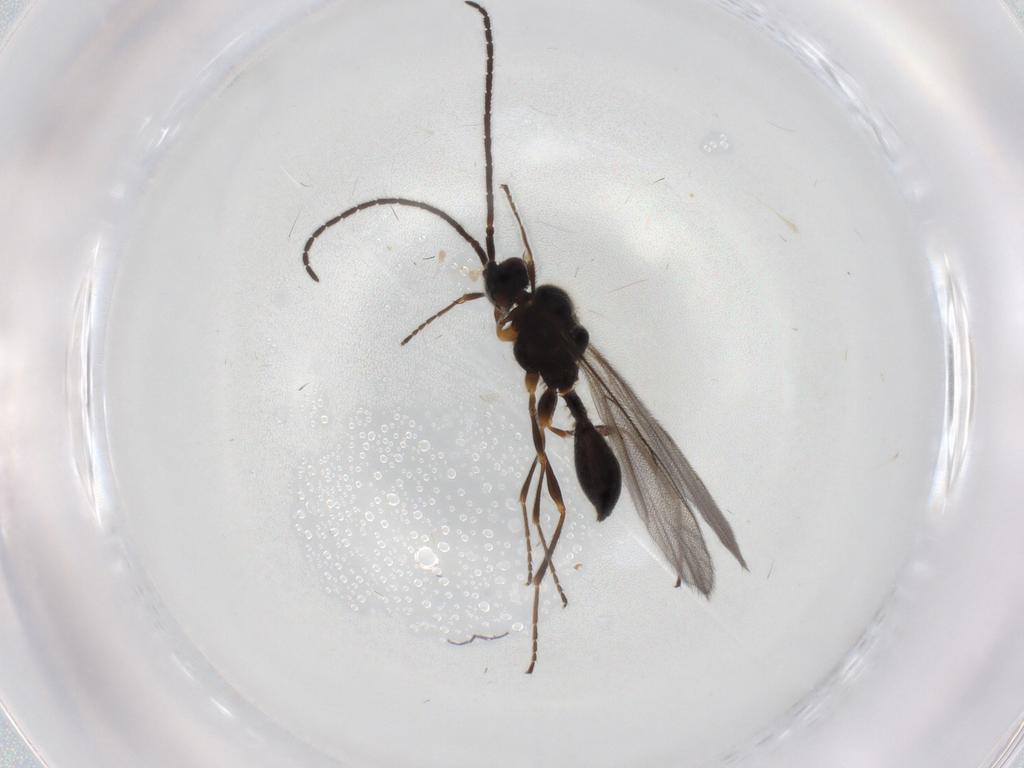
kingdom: Animalia
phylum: Arthropoda
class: Insecta
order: Hymenoptera
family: Diapriidae
